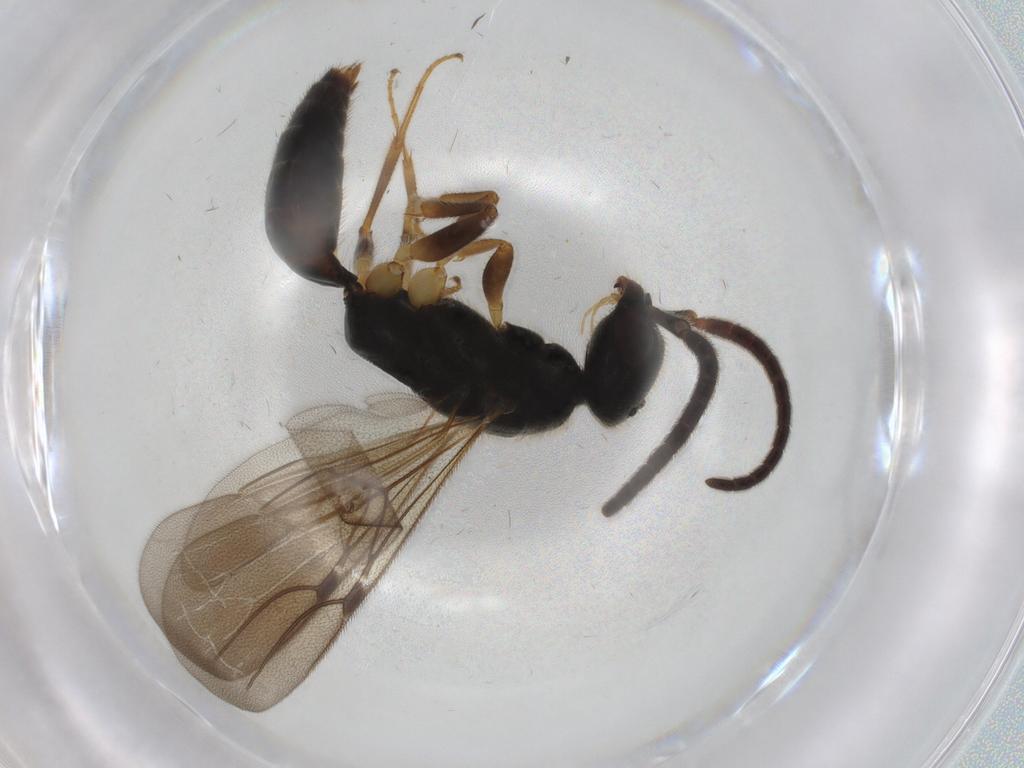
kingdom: Animalia
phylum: Arthropoda
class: Insecta
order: Hymenoptera
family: Bethylidae
